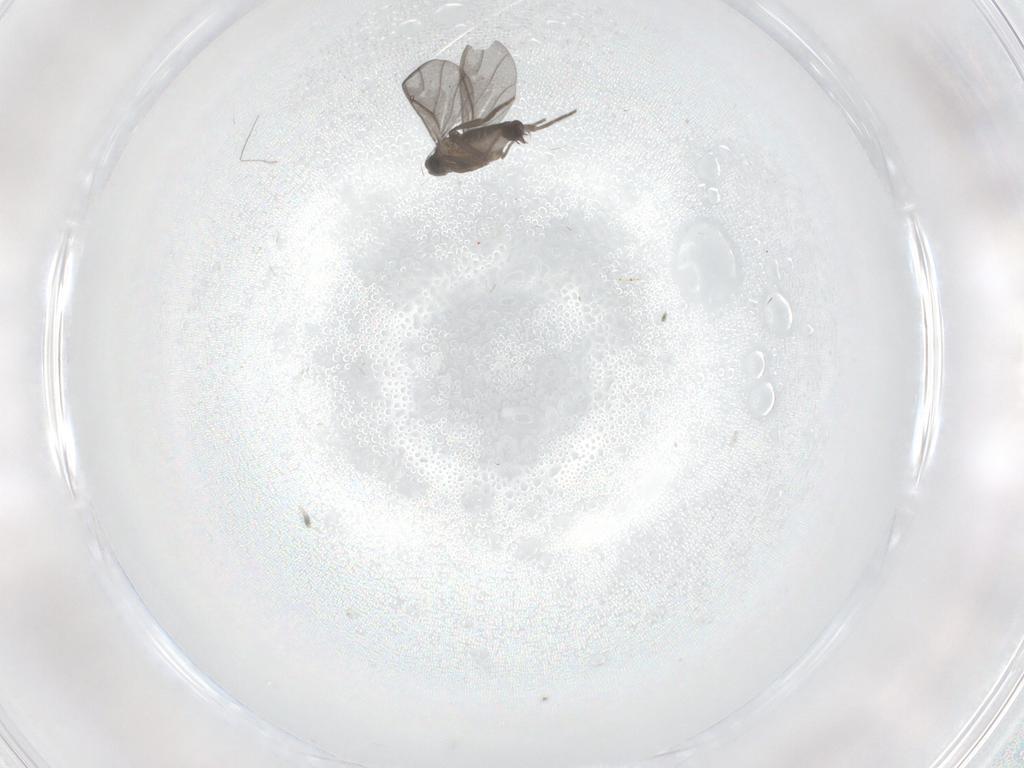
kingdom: Animalia
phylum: Arthropoda
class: Insecta
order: Diptera
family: Phoridae
